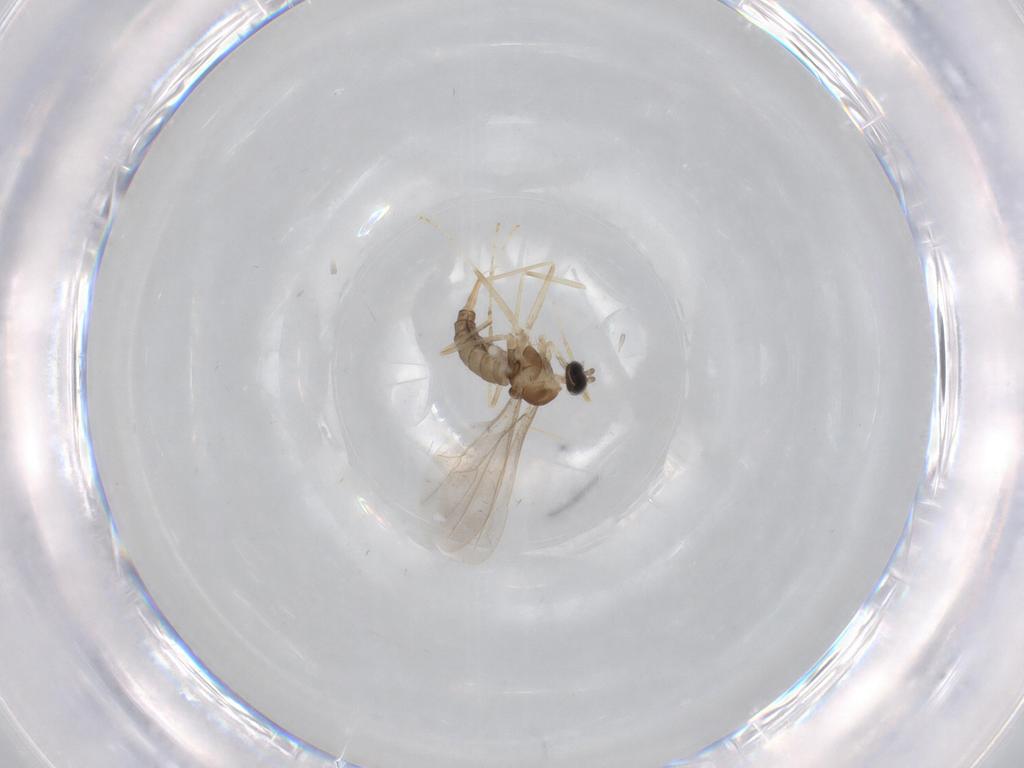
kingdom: Animalia
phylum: Arthropoda
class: Insecta
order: Diptera
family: Cecidomyiidae
